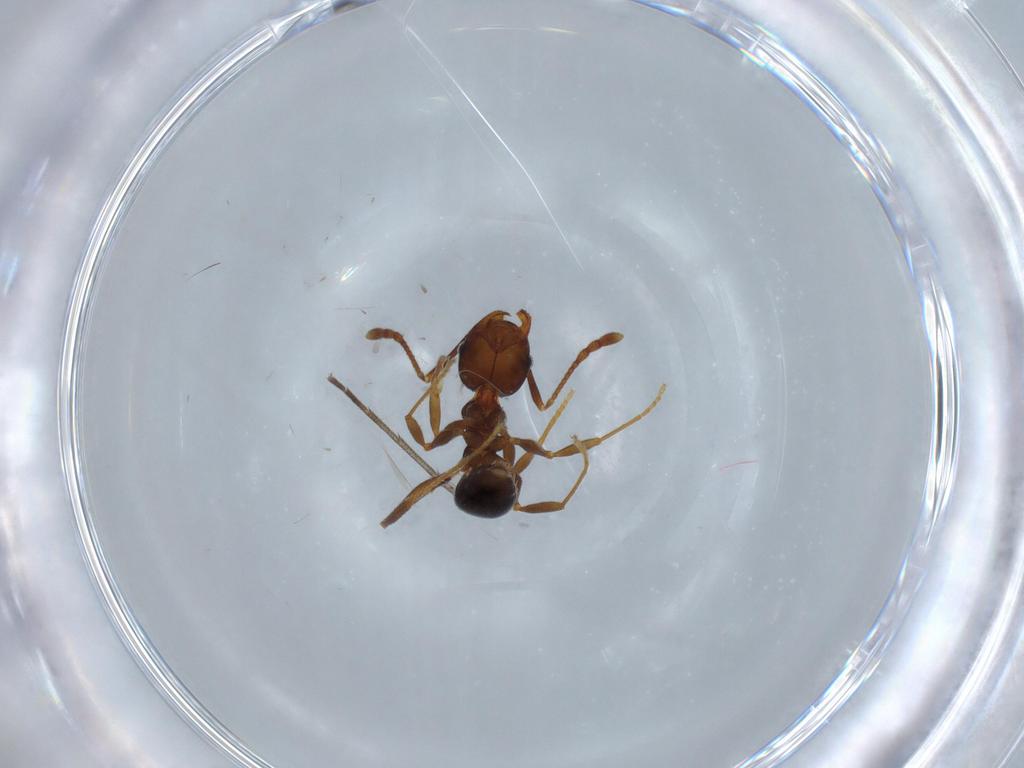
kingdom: Animalia
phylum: Arthropoda
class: Insecta
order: Hymenoptera
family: Formicidae
